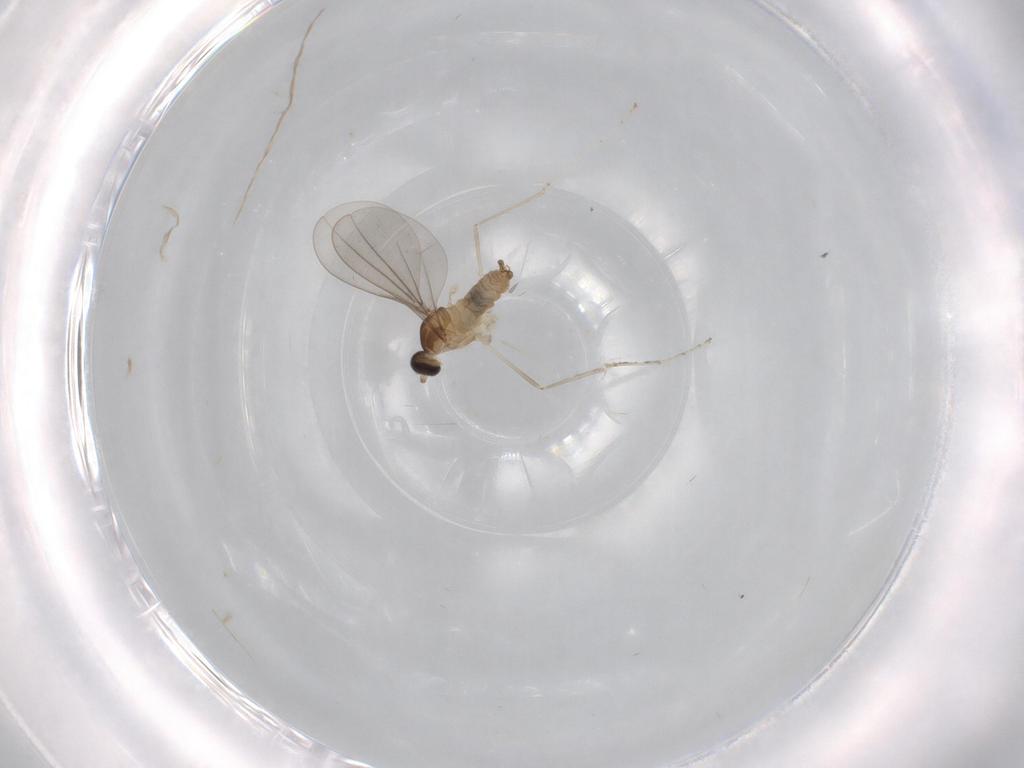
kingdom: Animalia
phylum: Arthropoda
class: Insecta
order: Diptera
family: Cecidomyiidae
